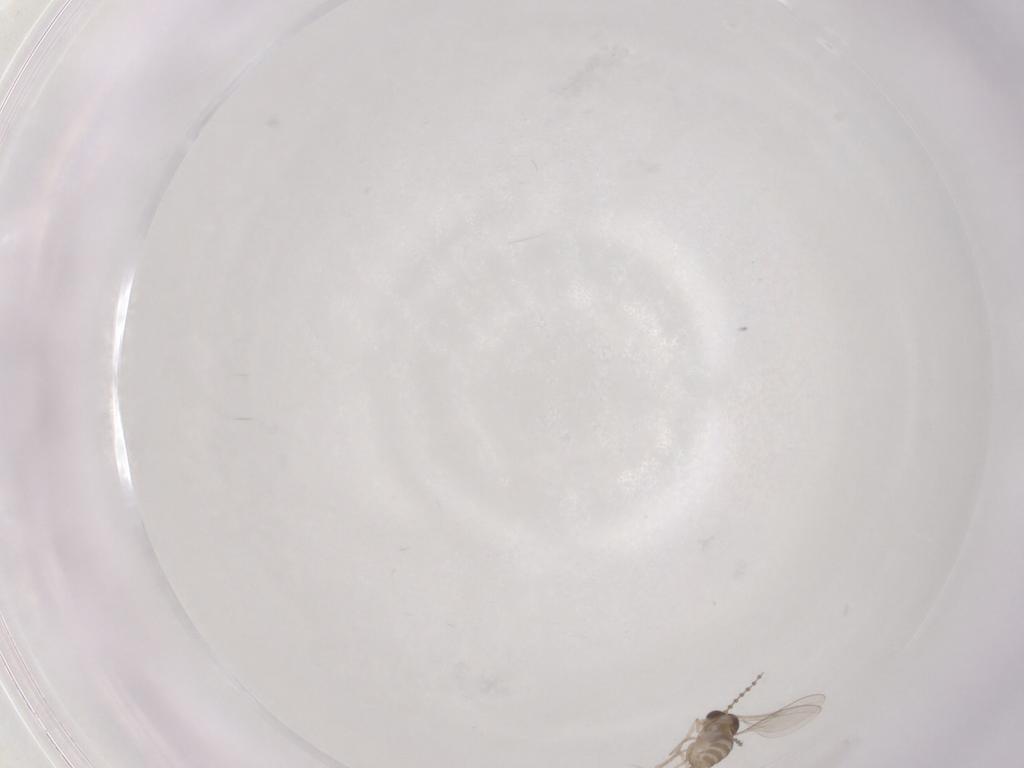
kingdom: Animalia
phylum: Arthropoda
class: Insecta
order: Diptera
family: Sciaridae
